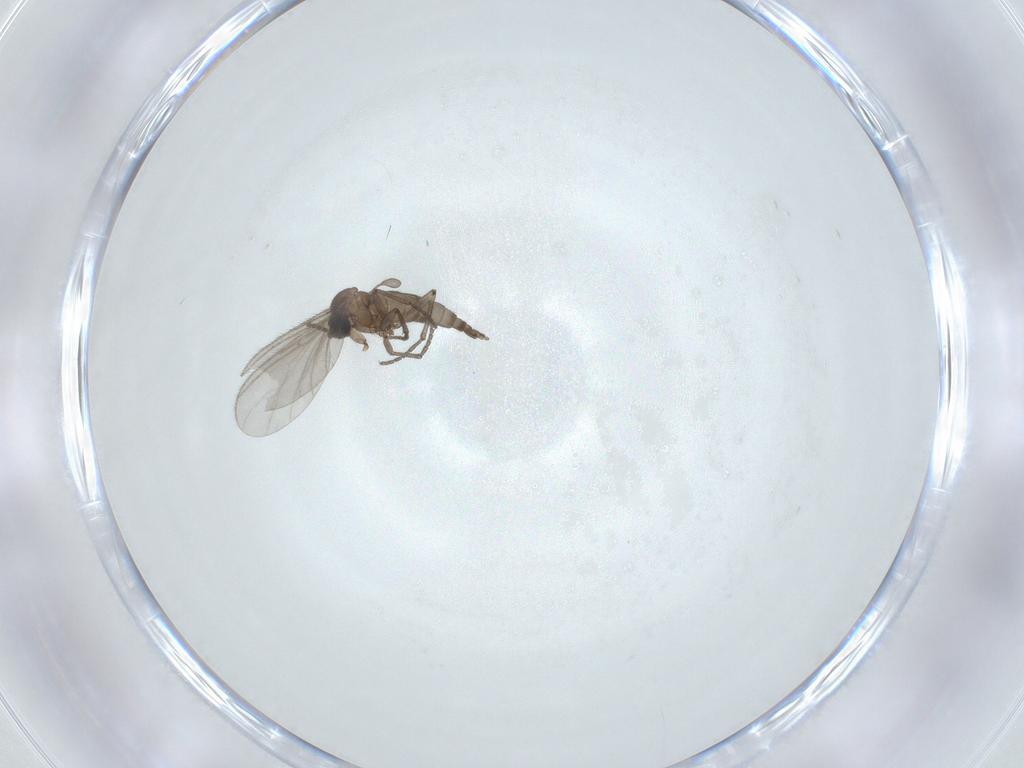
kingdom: Animalia
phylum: Arthropoda
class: Insecta
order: Diptera
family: Sciaridae
